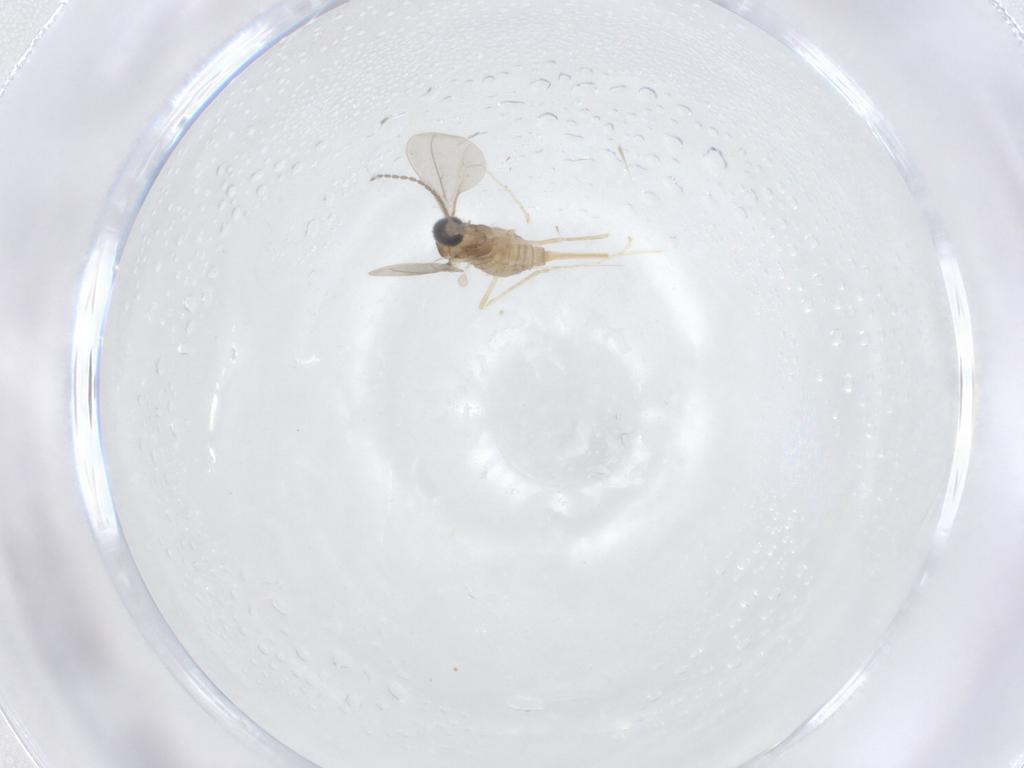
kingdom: Animalia
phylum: Arthropoda
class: Insecta
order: Diptera
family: Cecidomyiidae
